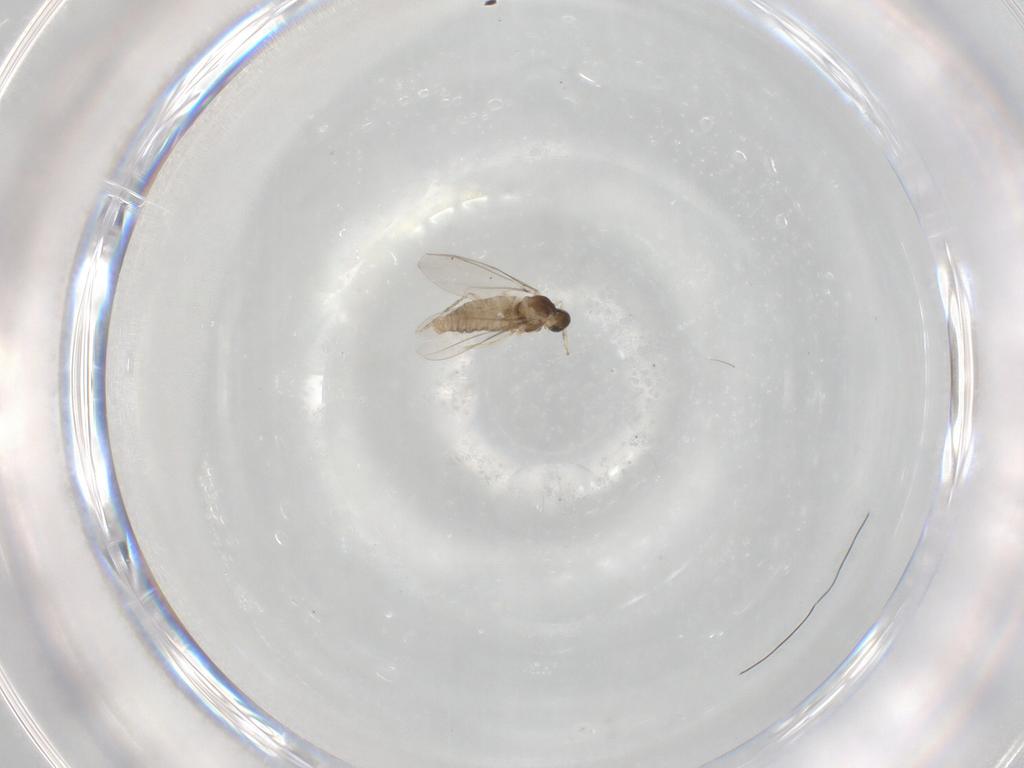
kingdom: Animalia
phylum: Arthropoda
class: Insecta
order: Diptera
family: Cecidomyiidae
